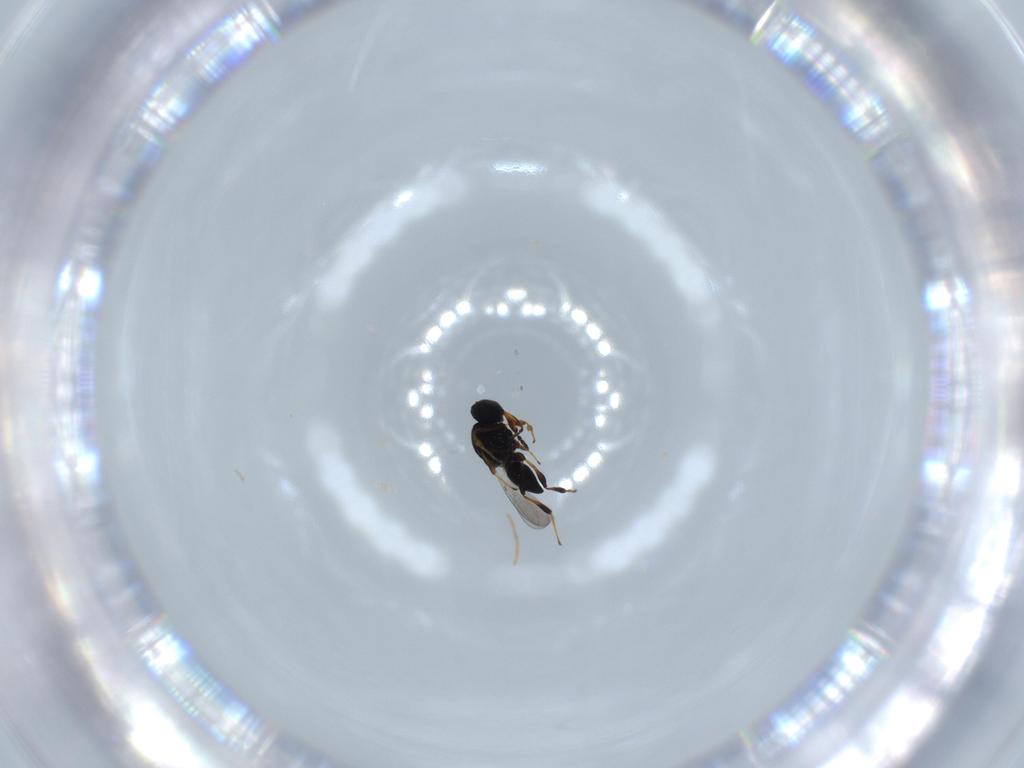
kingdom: Animalia
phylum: Arthropoda
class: Insecta
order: Hymenoptera
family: Platygastridae
